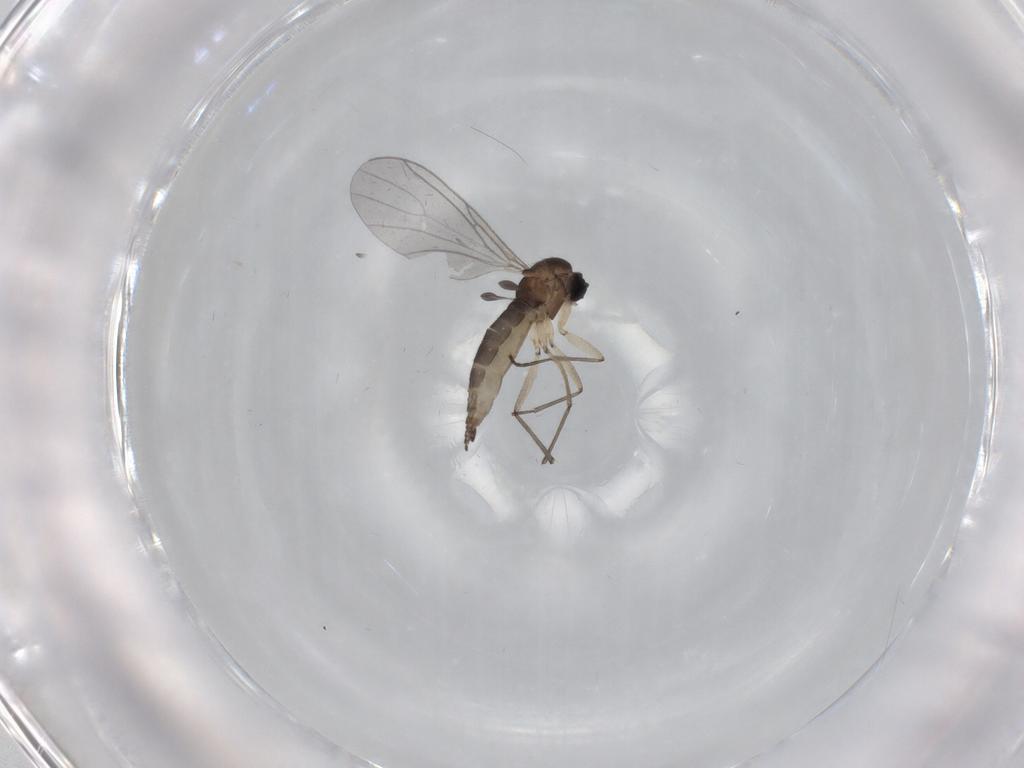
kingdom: Animalia
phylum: Arthropoda
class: Insecta
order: Diptera
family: Sciaridae
